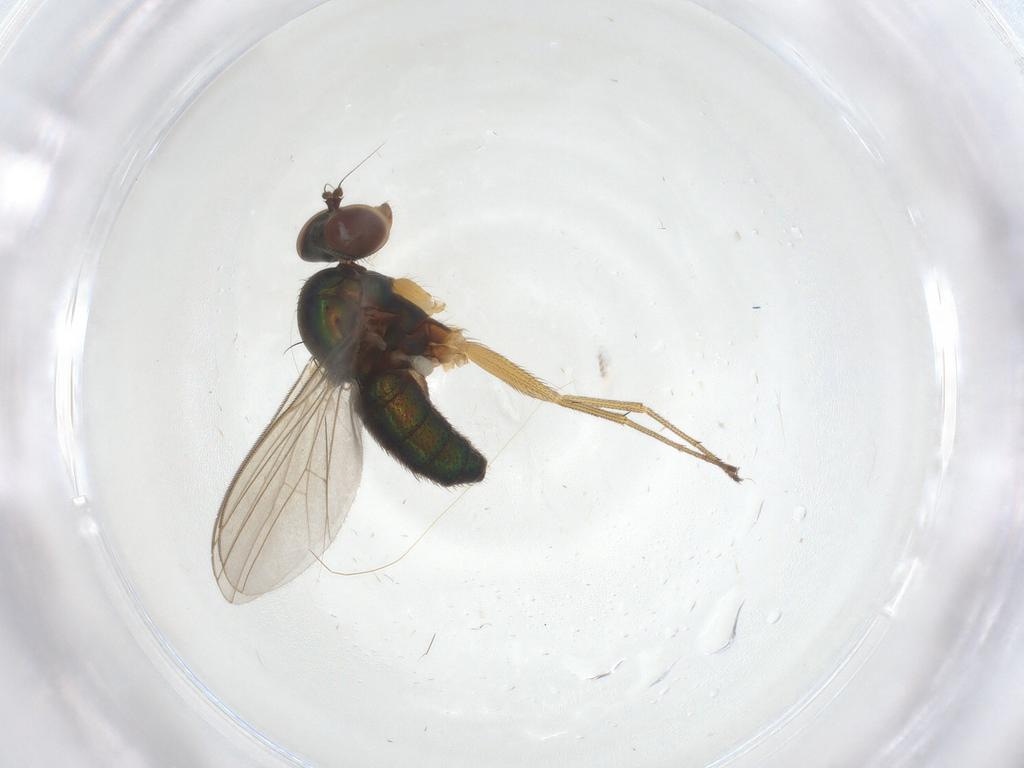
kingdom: Animalia
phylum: Arthropoda
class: Insecta
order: Diptera
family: Dolichopodidae
